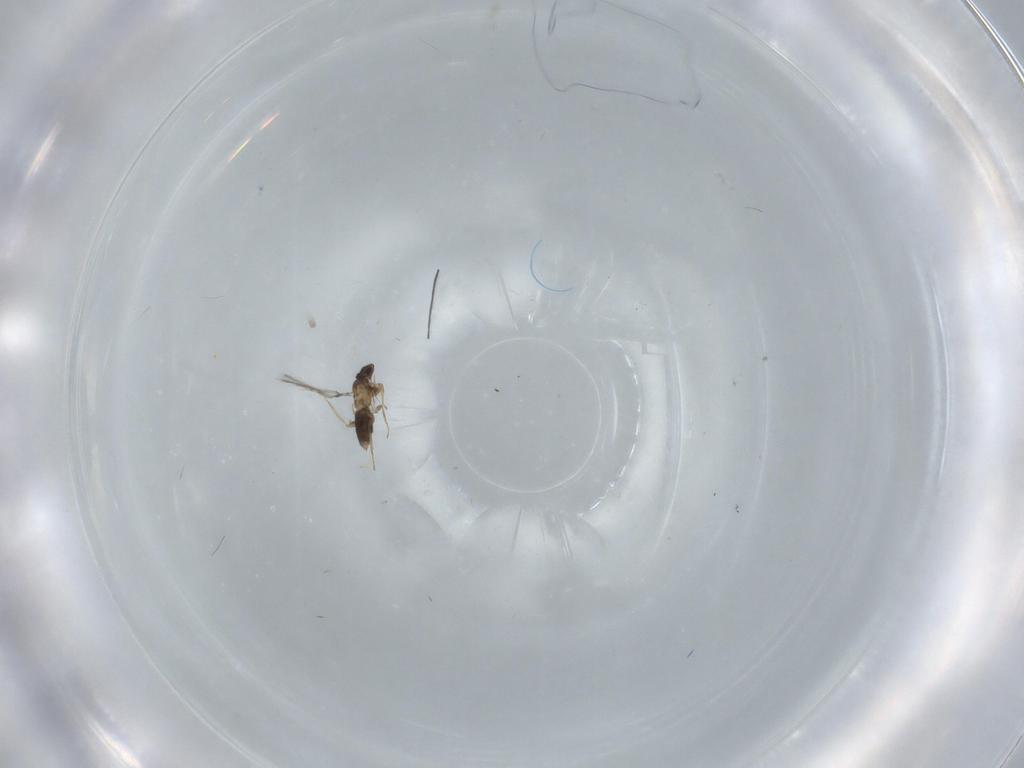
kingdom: Animalia
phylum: Arthropoda
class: Insecta
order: Hymenoptera
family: Mymaridae
